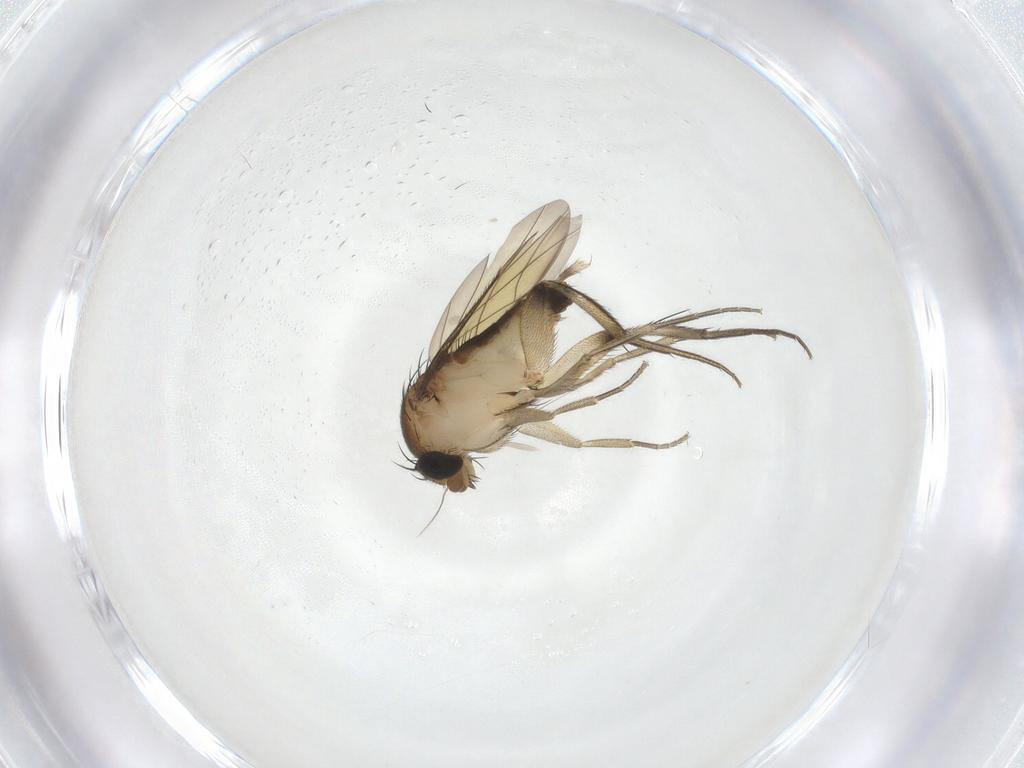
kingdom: Animalia
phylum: Arthropoda
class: Insecta
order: Diptera
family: Phoridae
